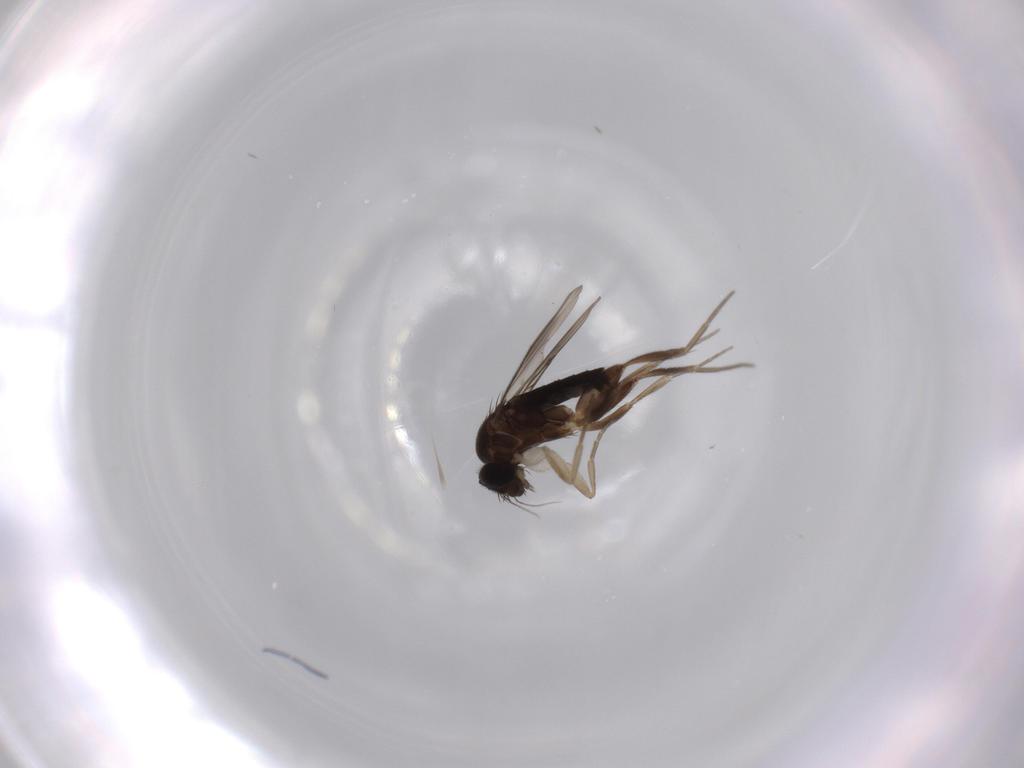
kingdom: Animalia
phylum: Arthropoda
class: Insecta
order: Diptera
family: Phoridae
